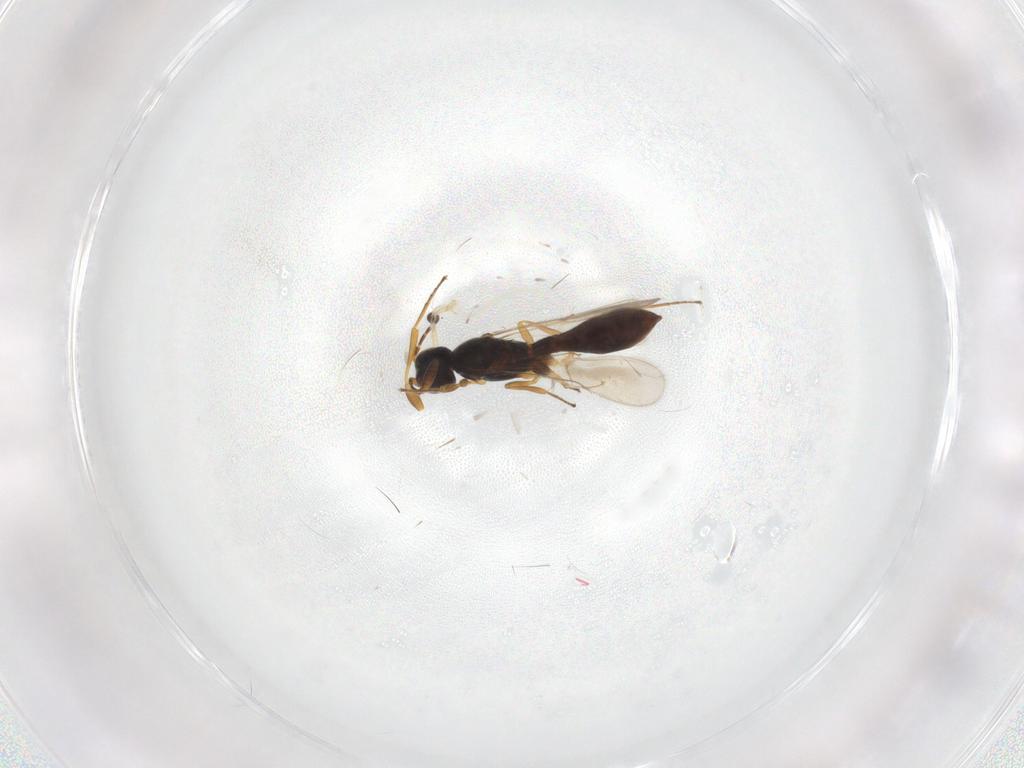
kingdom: Animalia
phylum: Arthropoda
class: Insecta
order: Hymenoptera
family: Scelionidae
